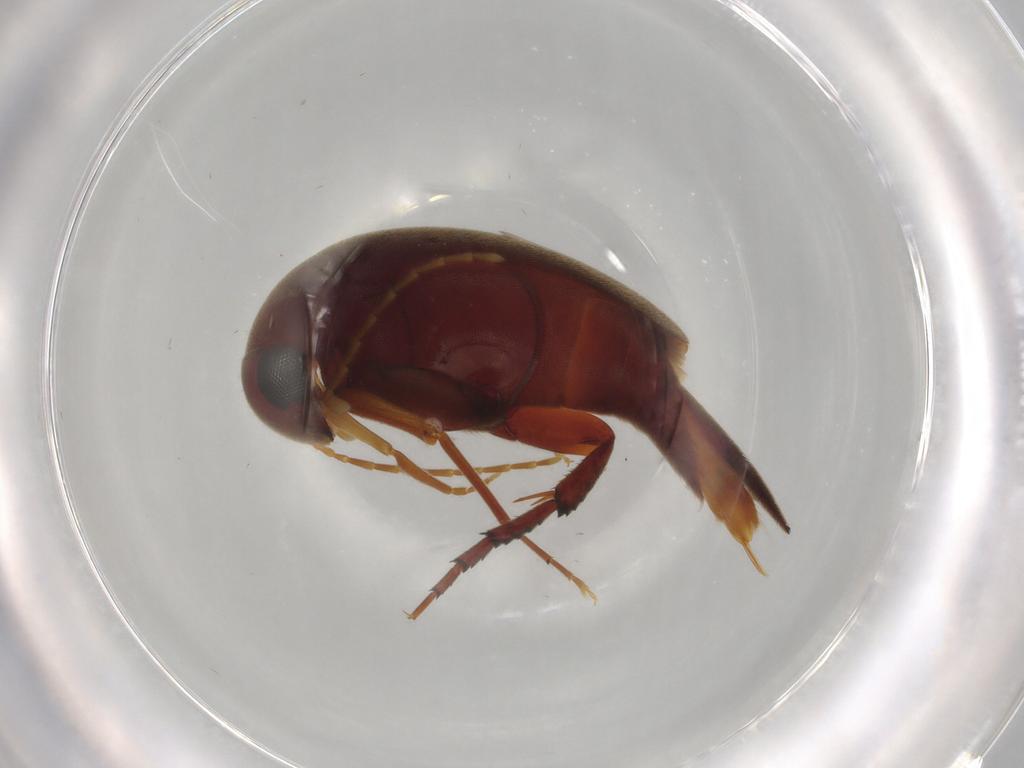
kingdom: Animalia
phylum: Arthropoda
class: Insecta
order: Coleoptera
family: Mordellidae
